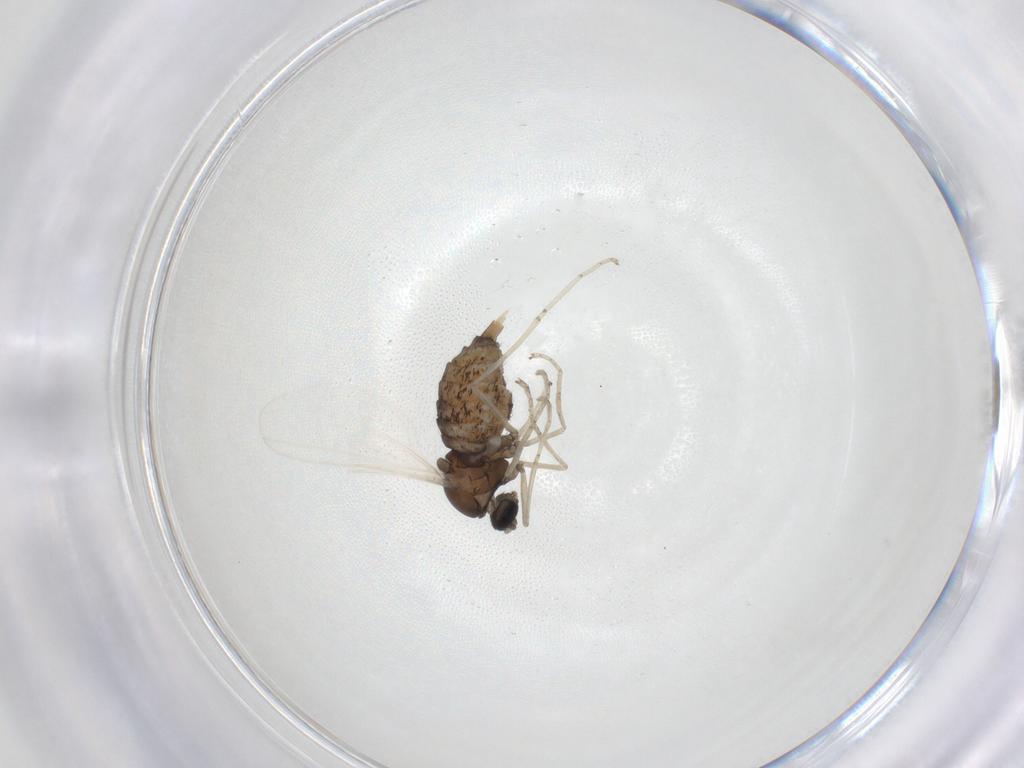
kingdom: Animalia
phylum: Arthropoda
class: Insecta
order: Diptera
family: Cecidomyiidae
